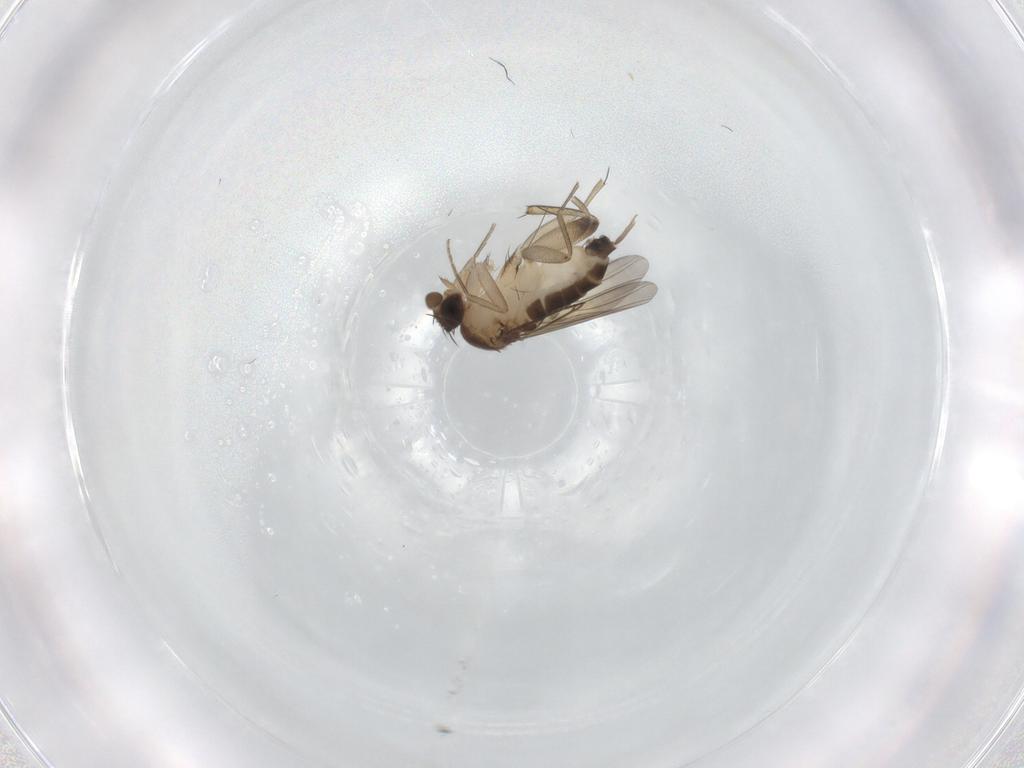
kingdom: Animalia
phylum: Arthropoda
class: Insecta
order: Diptera
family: Phoridae
